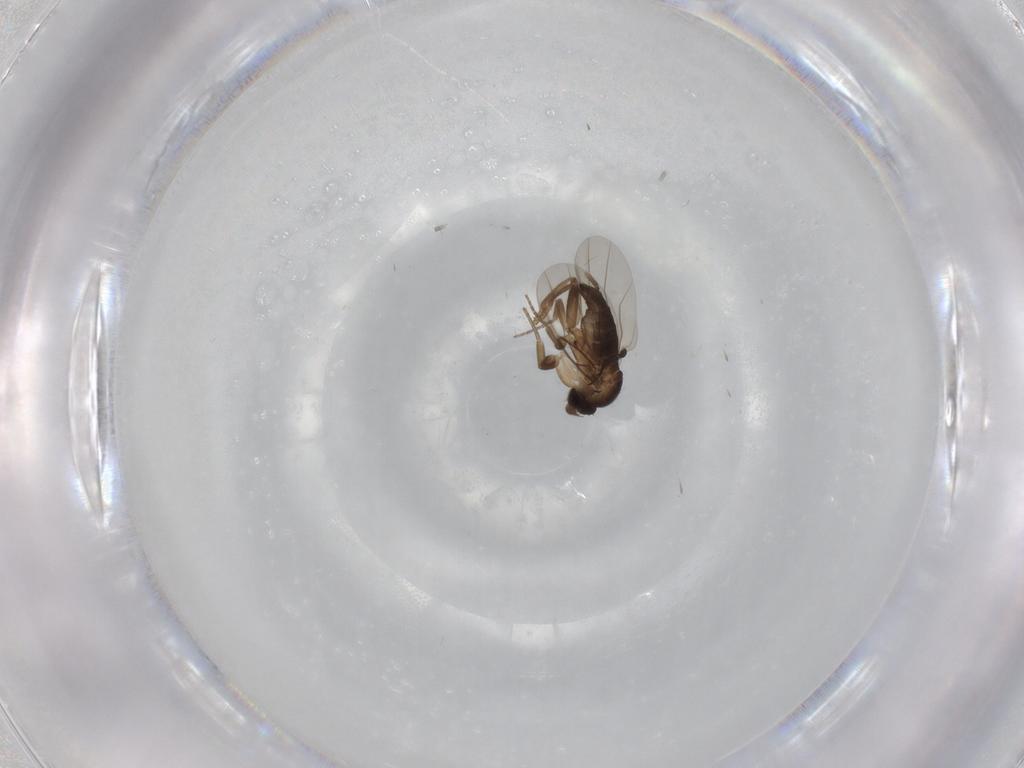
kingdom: Animalia
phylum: Arthropoda
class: Insecta
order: Diptera
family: Phoridae
